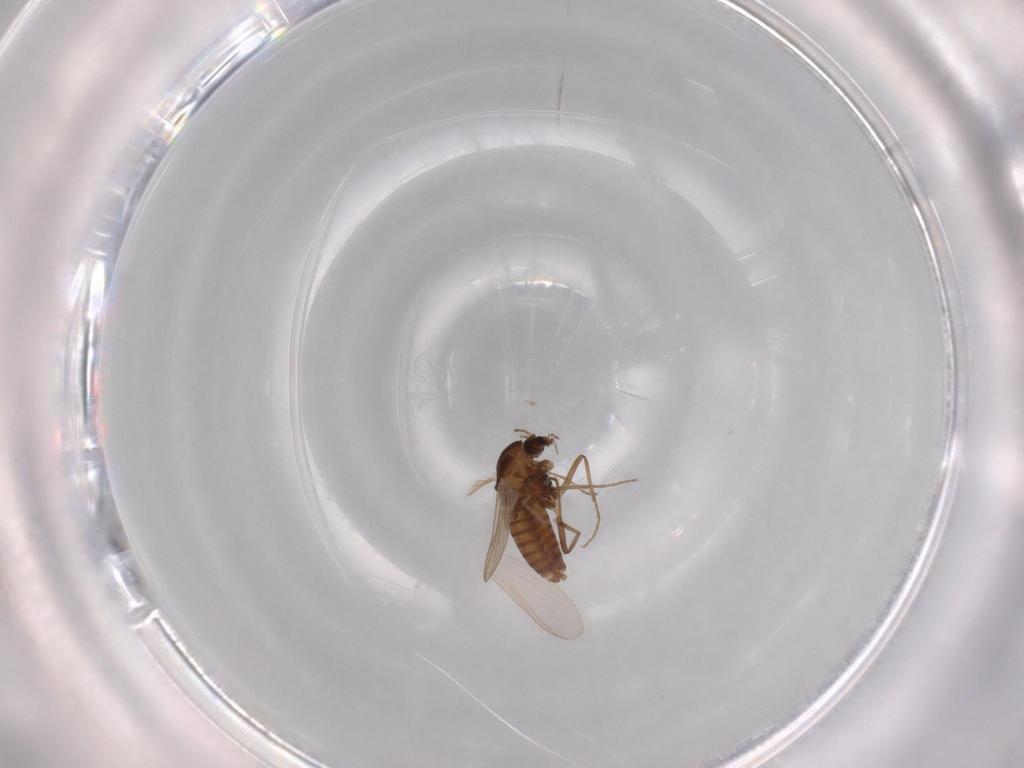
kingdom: Animalia
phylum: Arthropoda
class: Insecta
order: Diptera
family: Chironomidae
